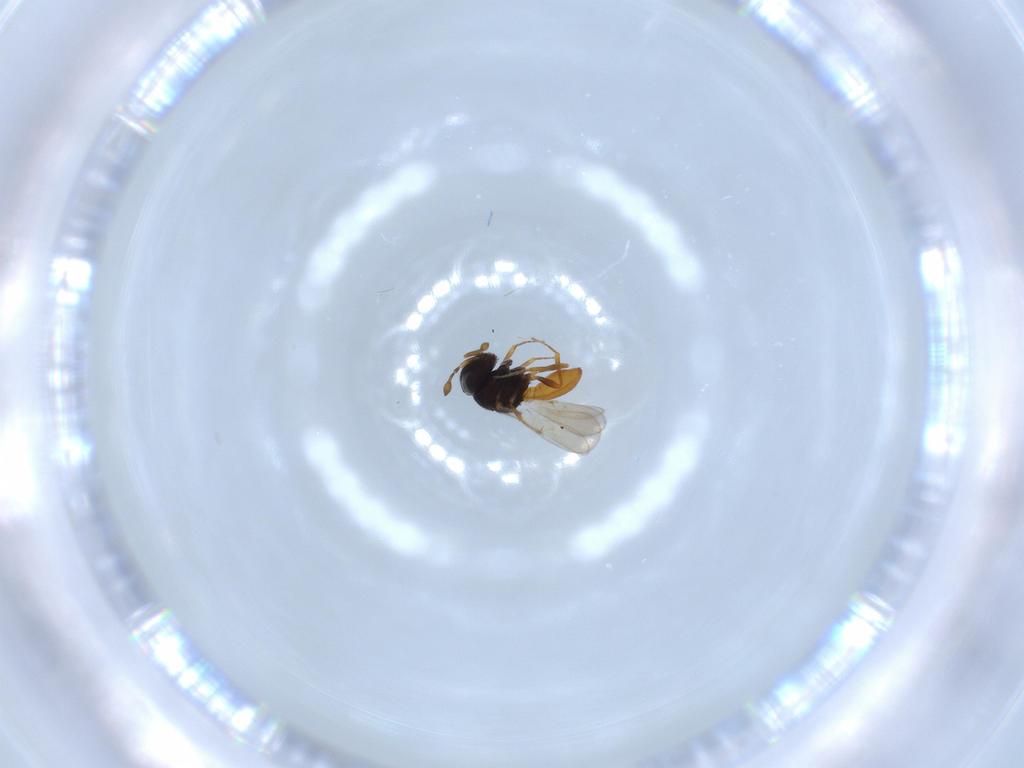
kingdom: Animalia
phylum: Arthropoda
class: Insecta
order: Hymenoptera
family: Scelionidae
